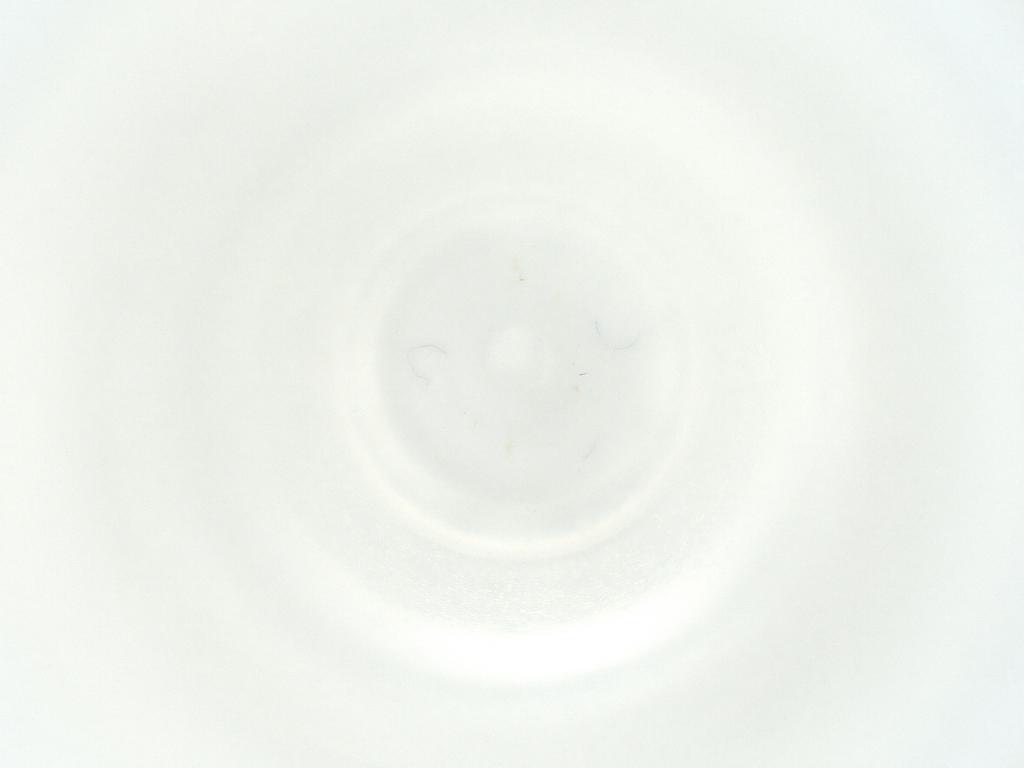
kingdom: Animalia
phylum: Arthropoda
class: Insecta
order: Hemiptera
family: Aleyrodidae
